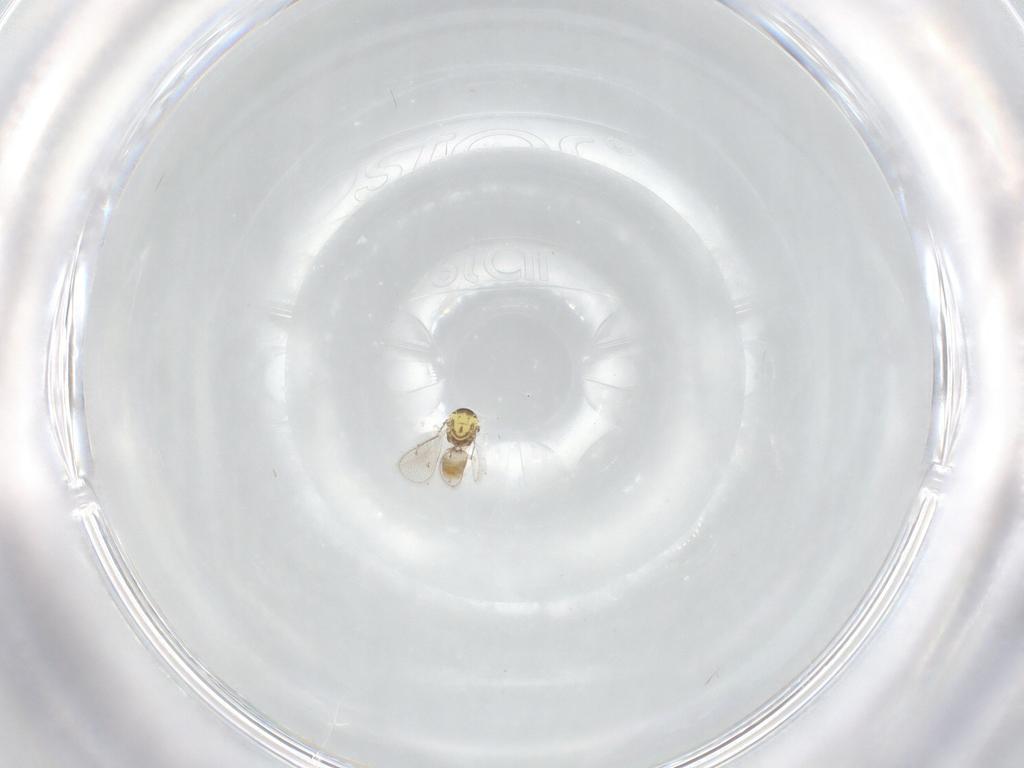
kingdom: Animalia
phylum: Arthropoda
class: Insecta
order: Hymenoptera
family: Eulophidae
